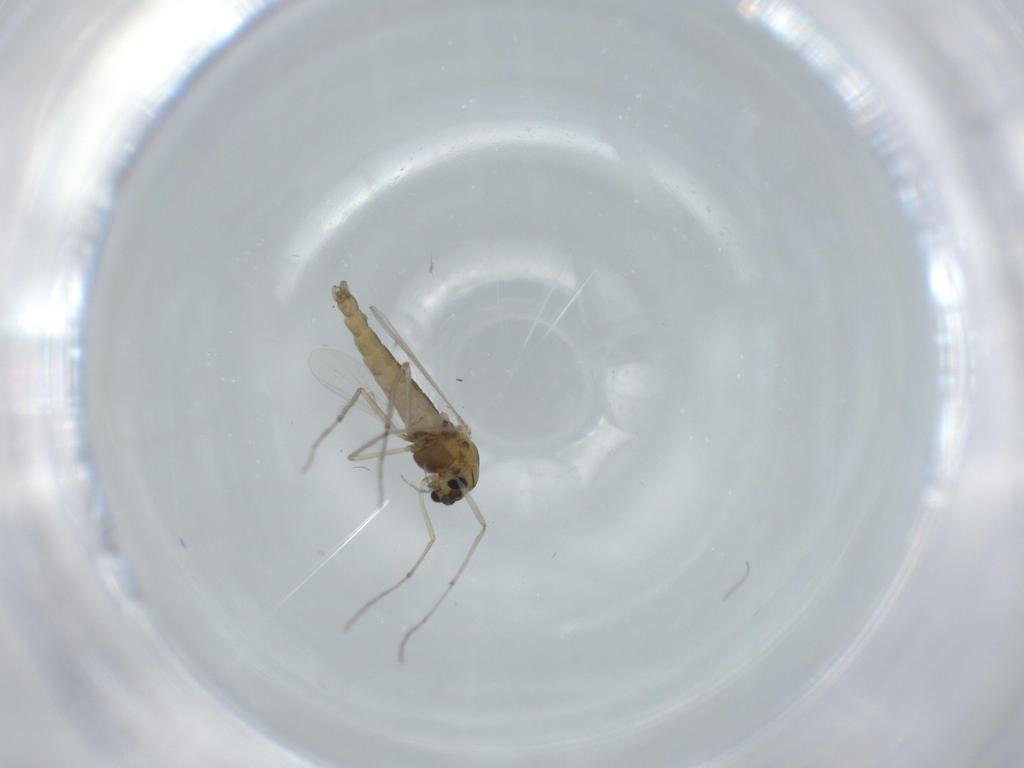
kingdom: Animalia
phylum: Arthropoda
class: Insecta
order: Diptera
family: Chironomidae
